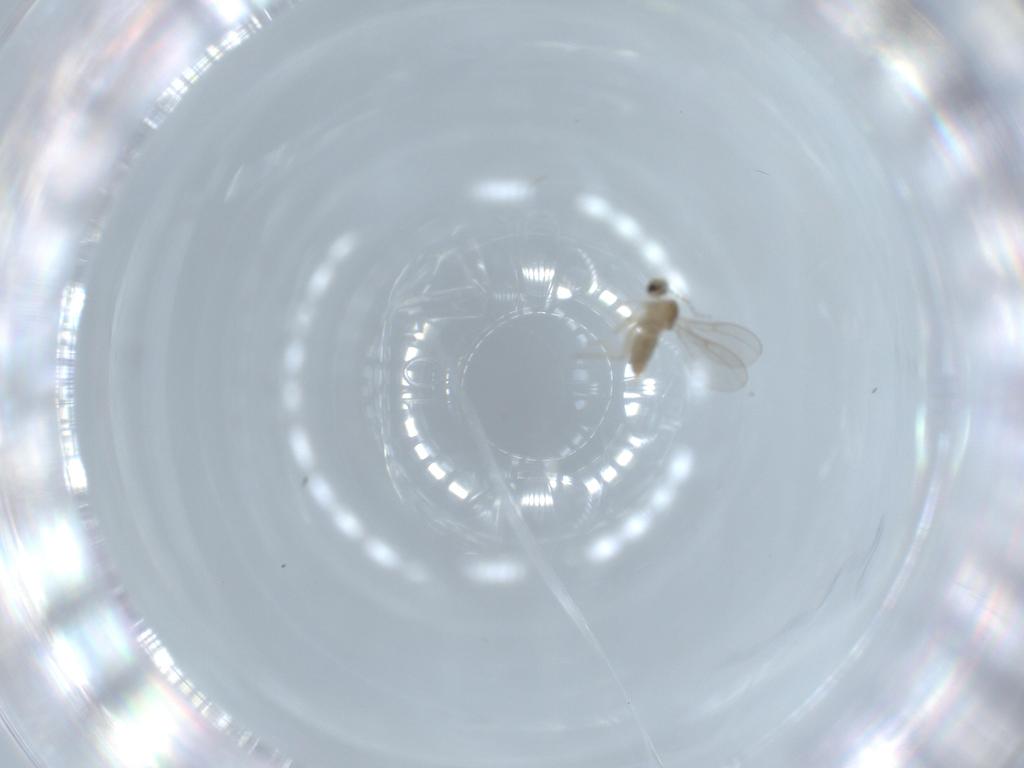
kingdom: Animalia
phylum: Arthropoda
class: Insecta
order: Diptera
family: Cecidomyiidae
